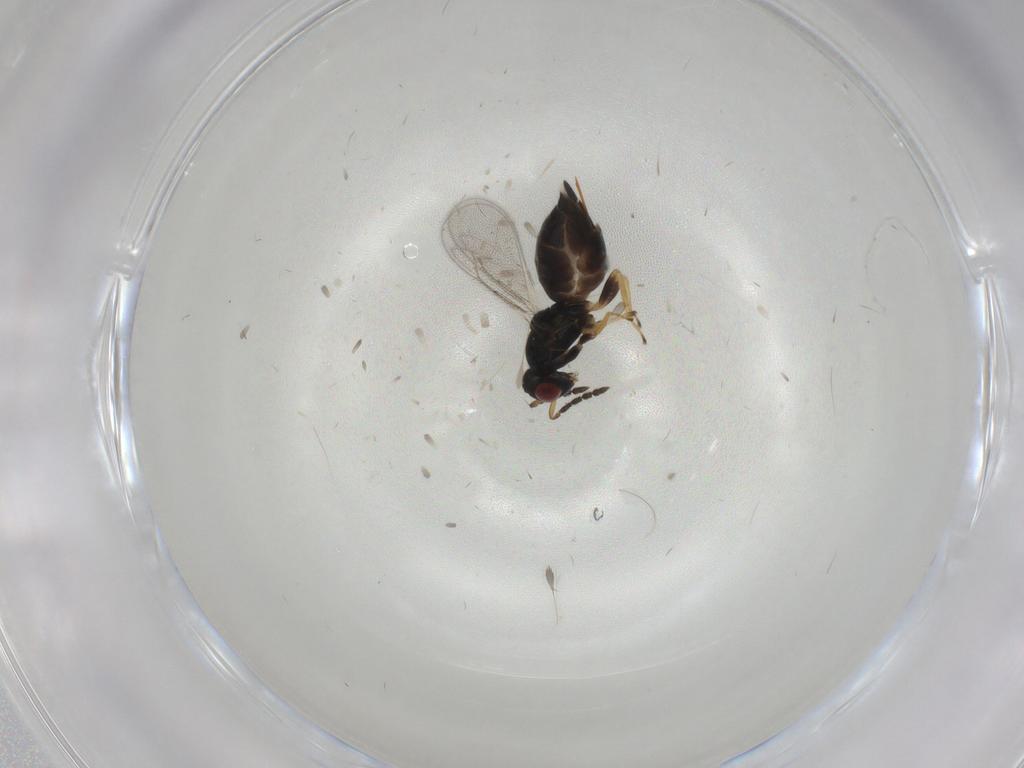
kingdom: Animalia
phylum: Arthropoda
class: Insecta
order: Hymenoptera
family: Eulophidae
